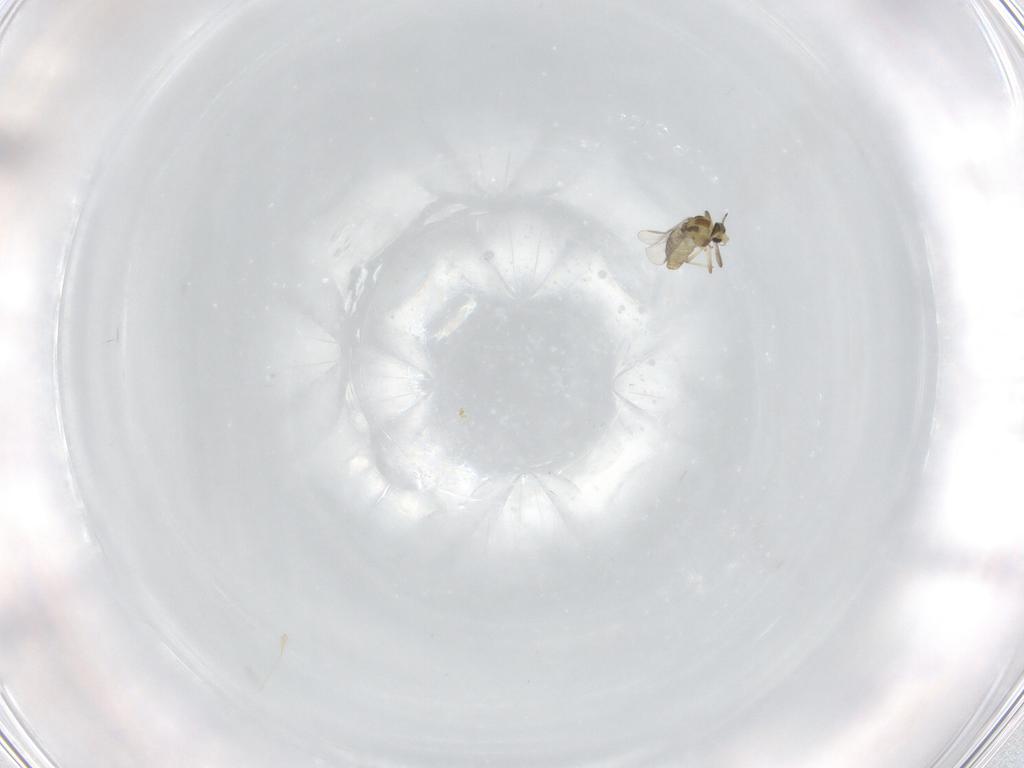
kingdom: Animalia
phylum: Arthropoda
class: Insecta
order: Diptera
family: Chironomidae
